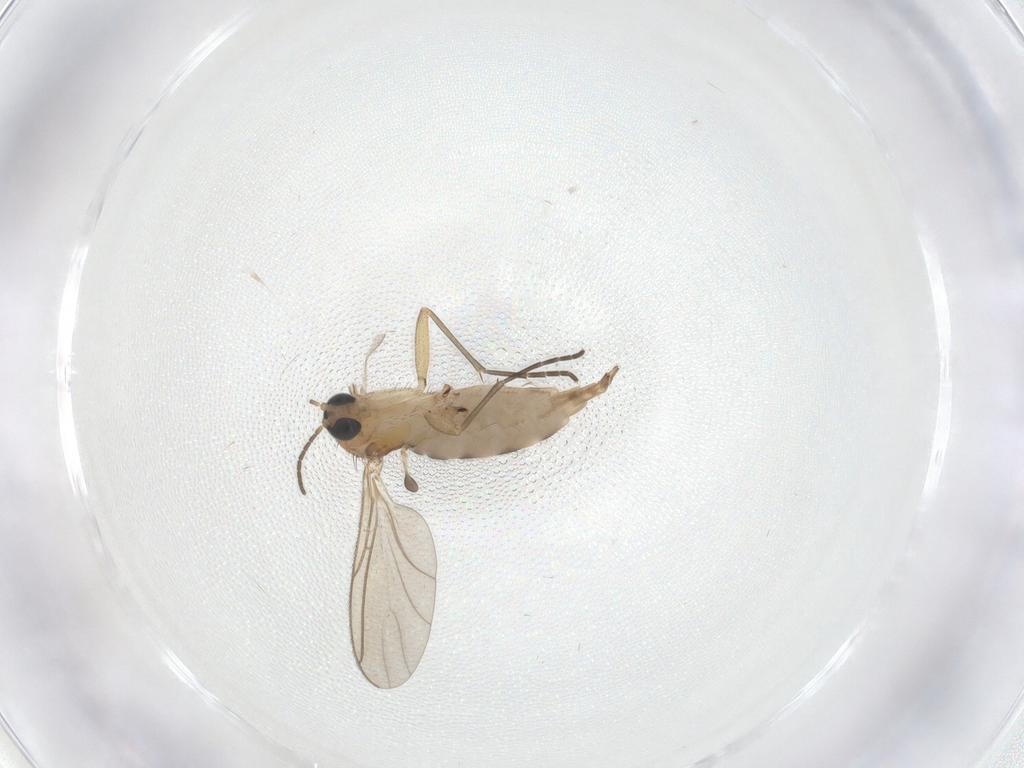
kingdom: Animalia
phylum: Arthropoda
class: Insecta
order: Diptera
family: Sciaridae
